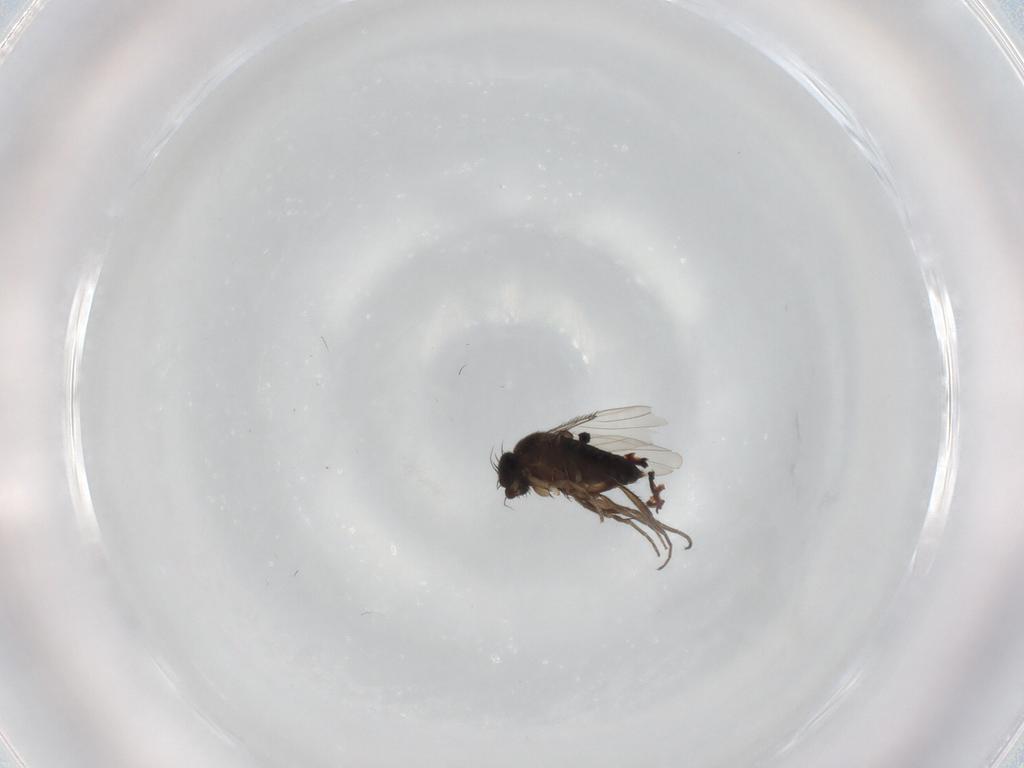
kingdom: Animalia
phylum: Arthropoda
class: Insecta
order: Diptera
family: Phoridae
